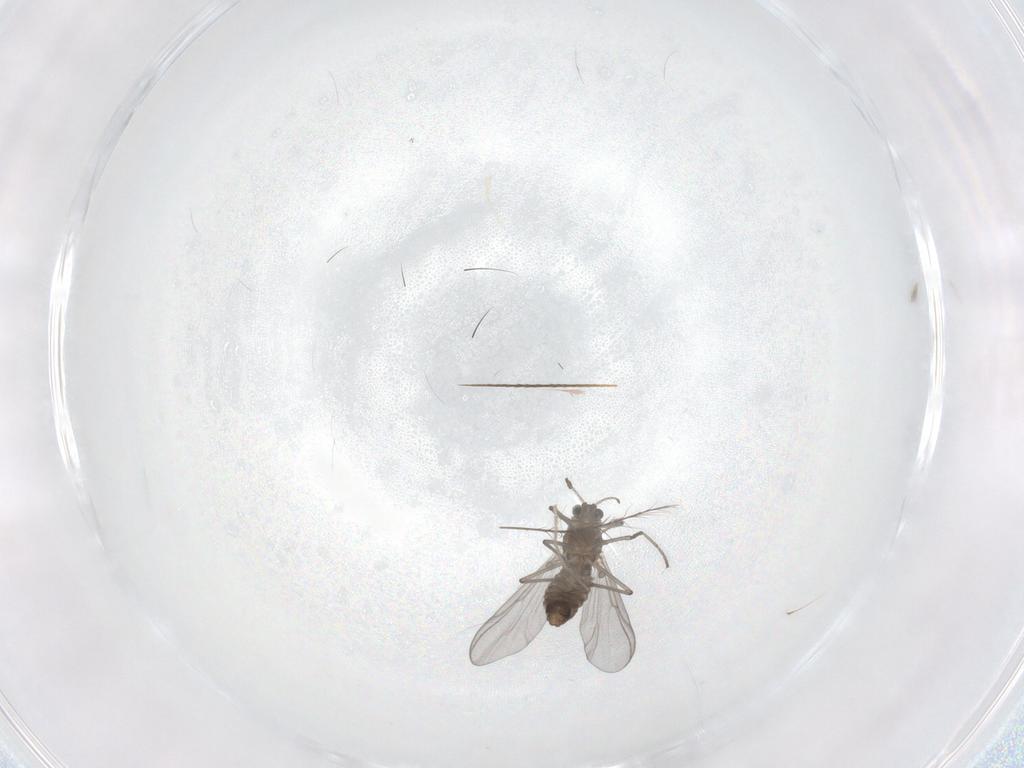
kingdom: Animalia
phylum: Arthropoda
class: Insecta
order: Diptera
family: Chironomidae
